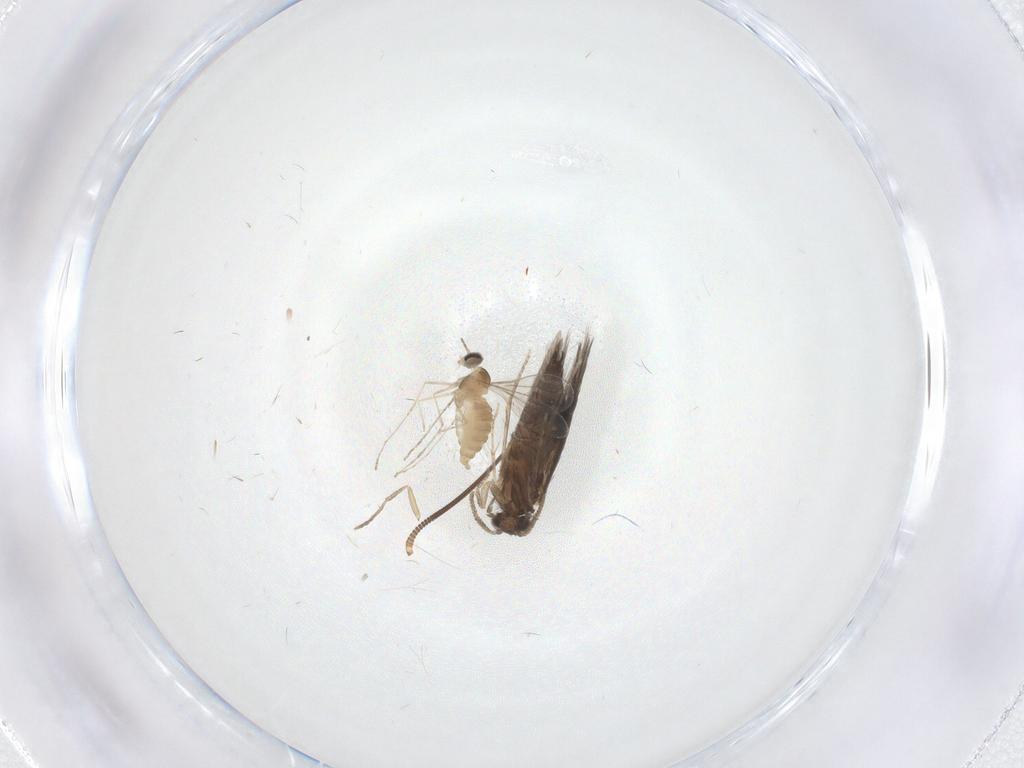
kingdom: Animalia
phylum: Arthropoda
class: Insecta
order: Trichoptera
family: Hydroptilidae
